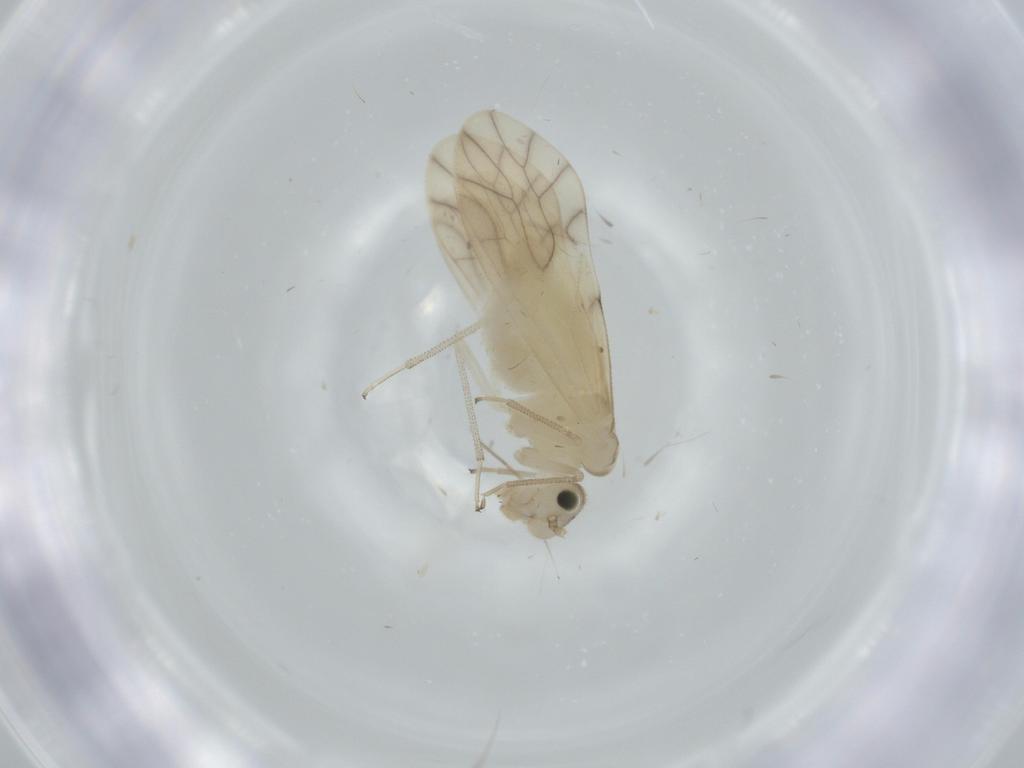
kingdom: Animalia
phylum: Arthropoda
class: Insecta
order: Psocodea
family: Caeciliusidae
